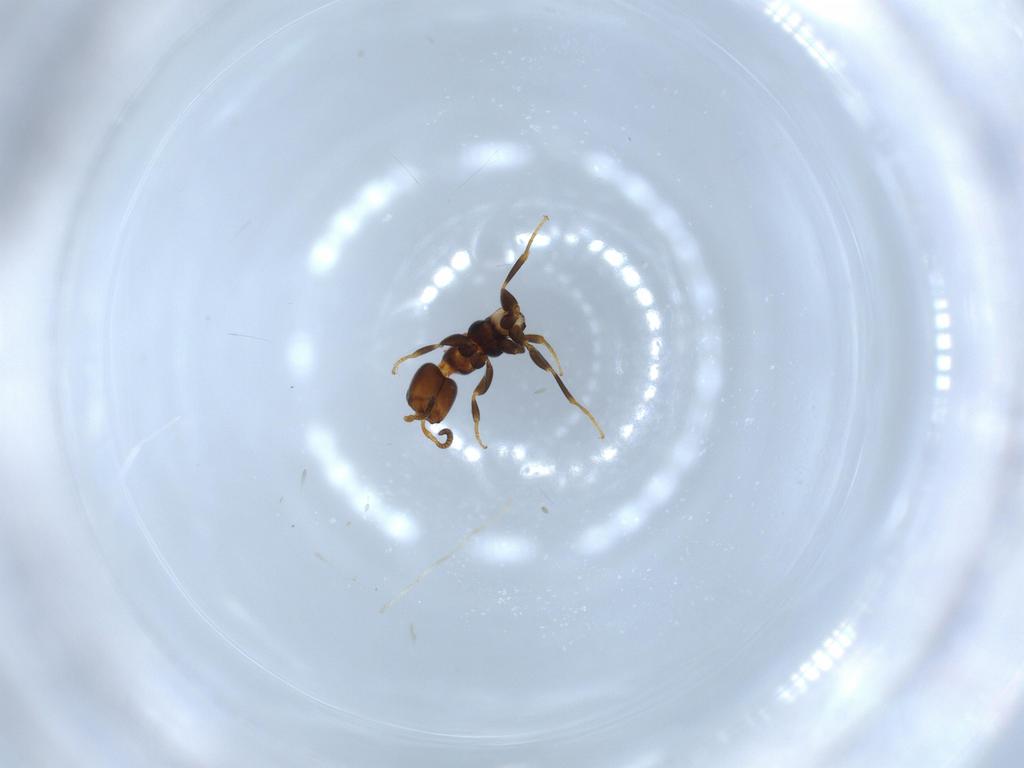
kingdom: Animalia
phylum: Arthropoda
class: Insecta
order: Hymenoptera
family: Bethylidae
